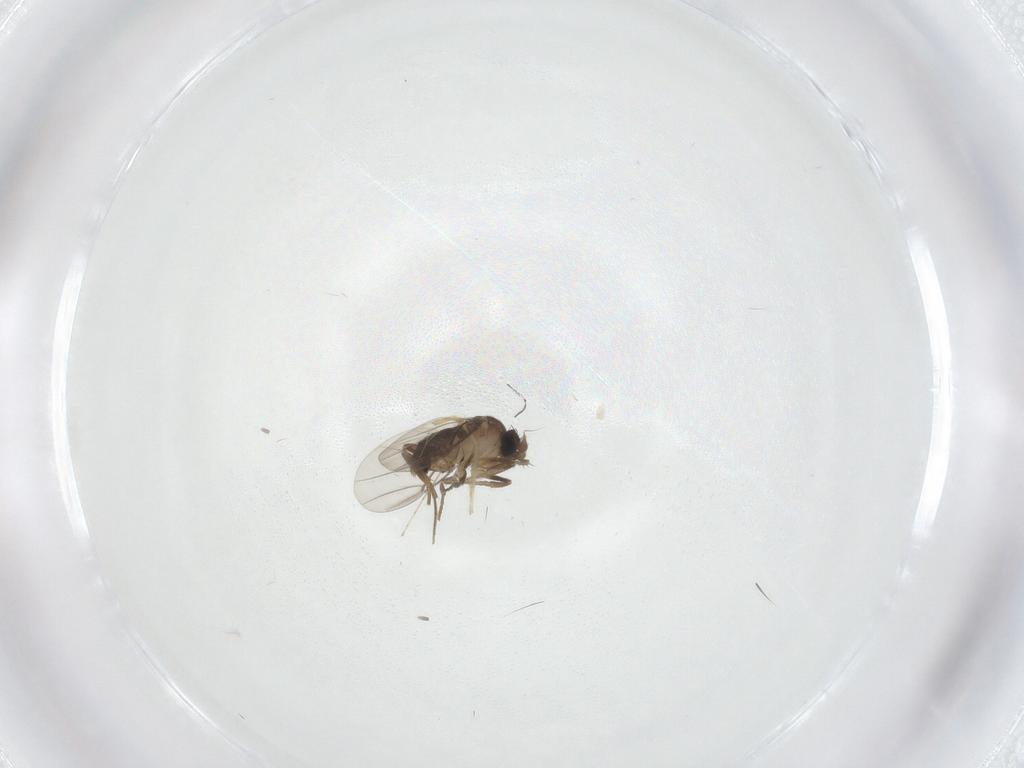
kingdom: Animalia
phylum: Arthropoda
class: Insecta
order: Diptera
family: Phoridae
